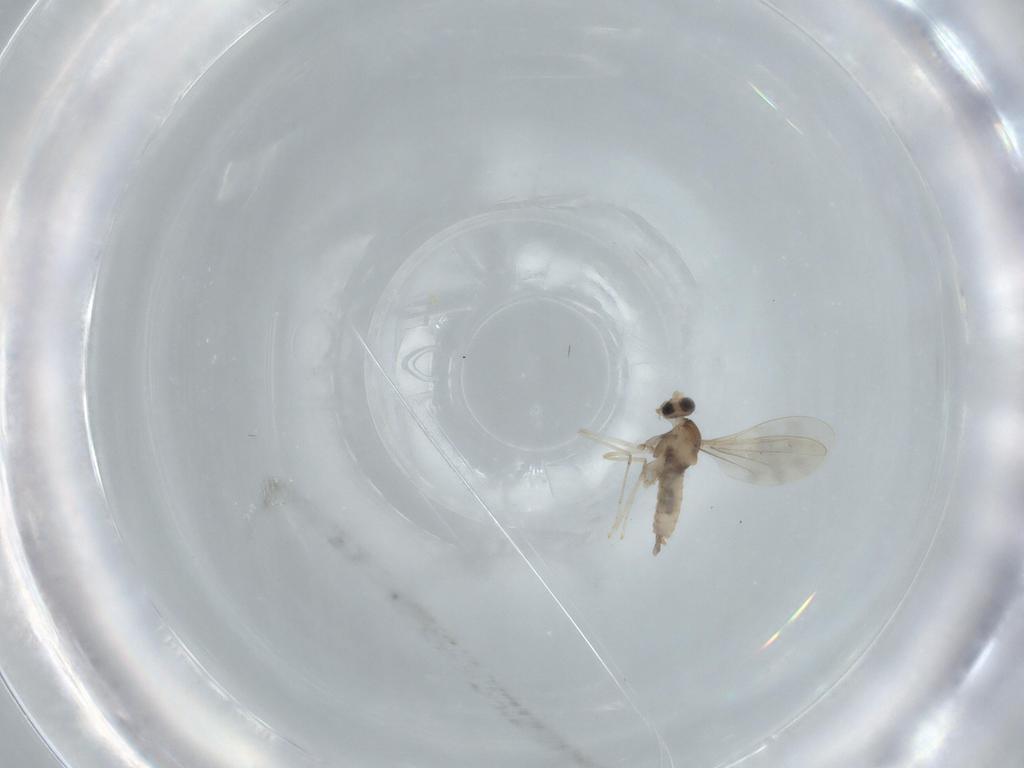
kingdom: Animalia
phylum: Arthropoda
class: Insecta
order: Diptera
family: Cecidomyiidae
